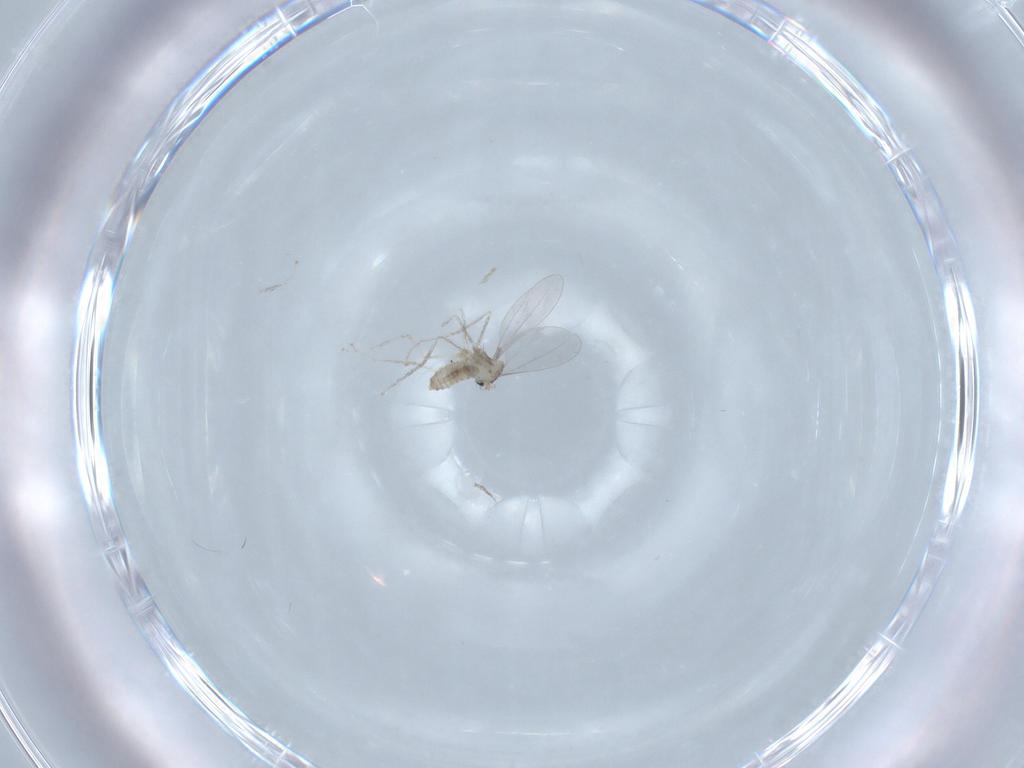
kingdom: Animalia
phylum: Arthropoda
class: Insecta
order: Diptera
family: Cecidomyiidae
